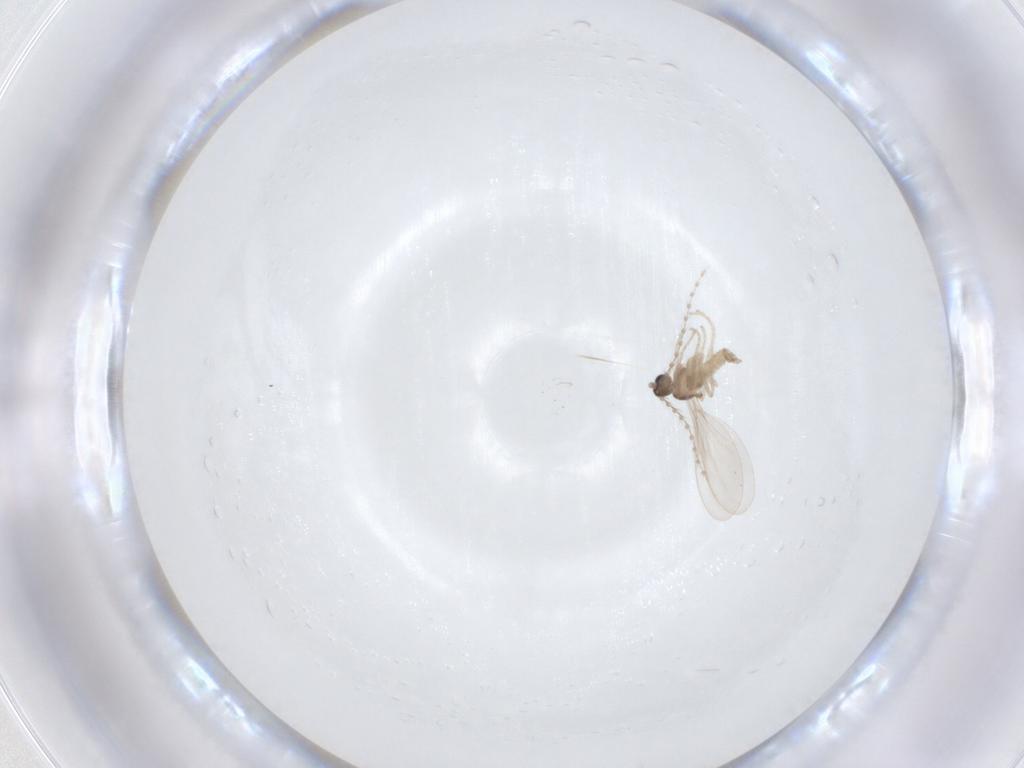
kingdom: Animalia
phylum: Arthropoda
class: Insecta
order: Diptera
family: Cecidomyiidae
